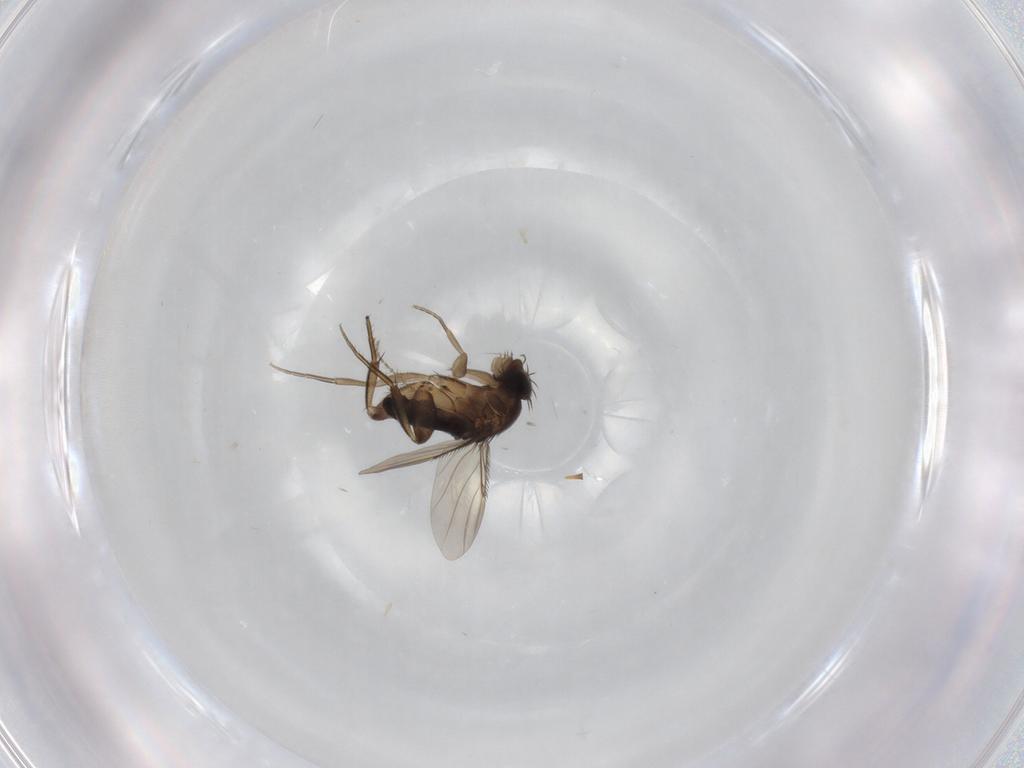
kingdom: Animalia
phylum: Arthropoda
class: Insecta
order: Diptera
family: Phoridae
